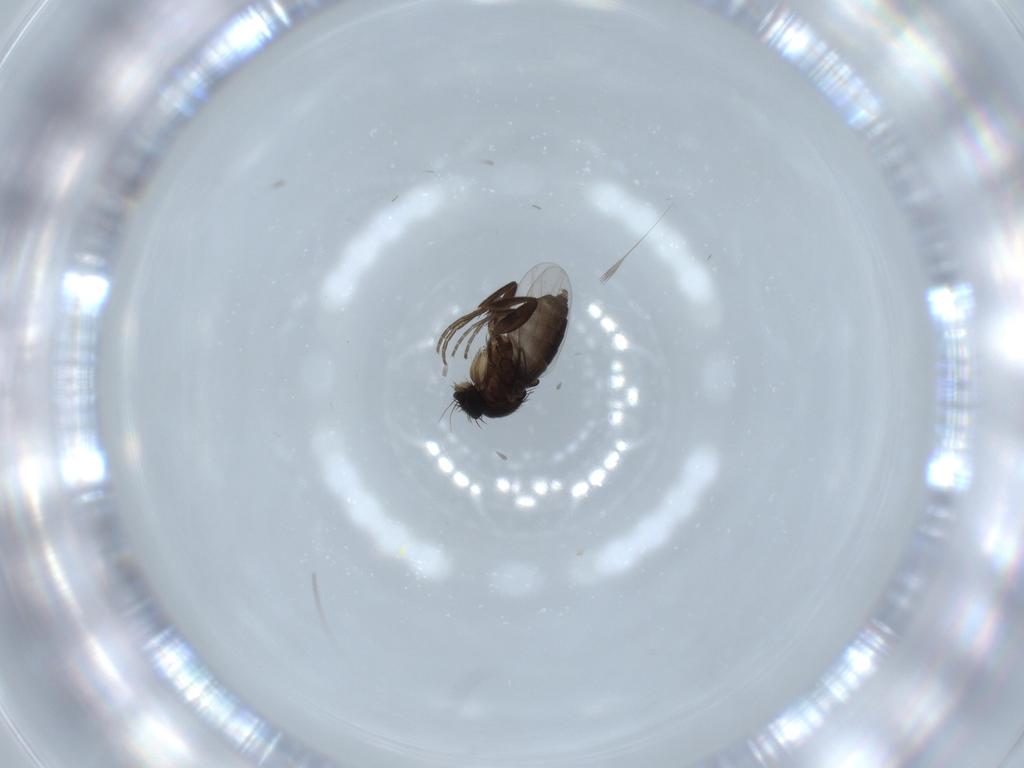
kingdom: Animalia
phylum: Arthropoda
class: Insecta
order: Diptera
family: Phoridae
